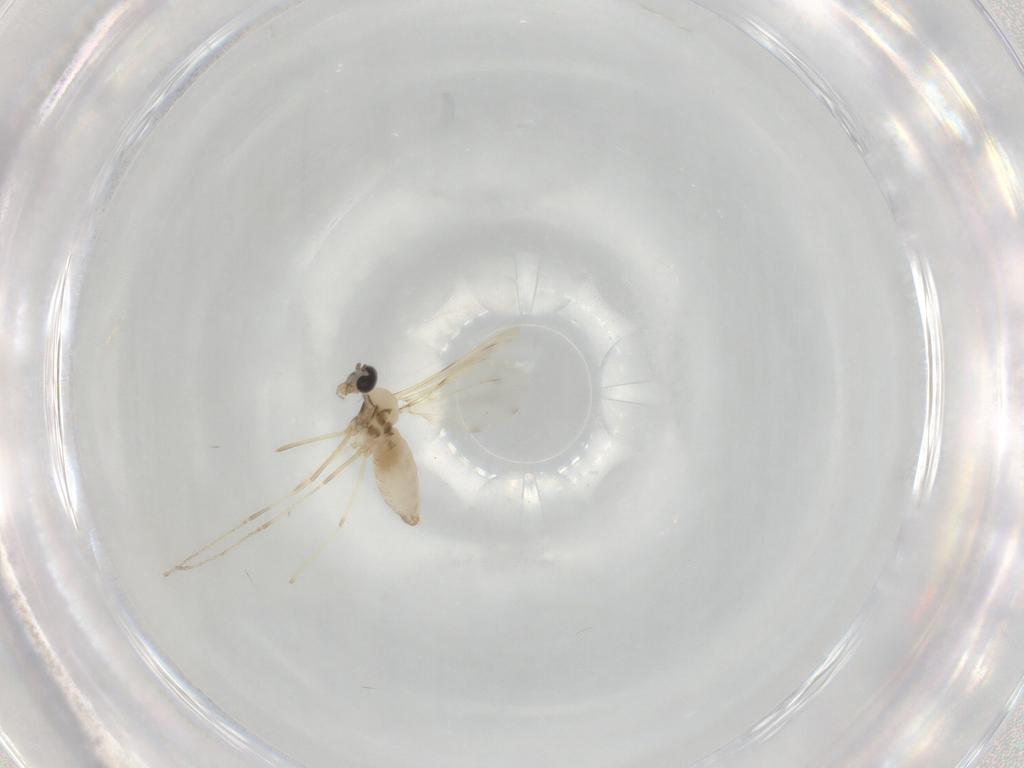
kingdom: Animalia
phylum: Arthropoda
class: Insecta
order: Diptera
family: Cecidomyiidae
